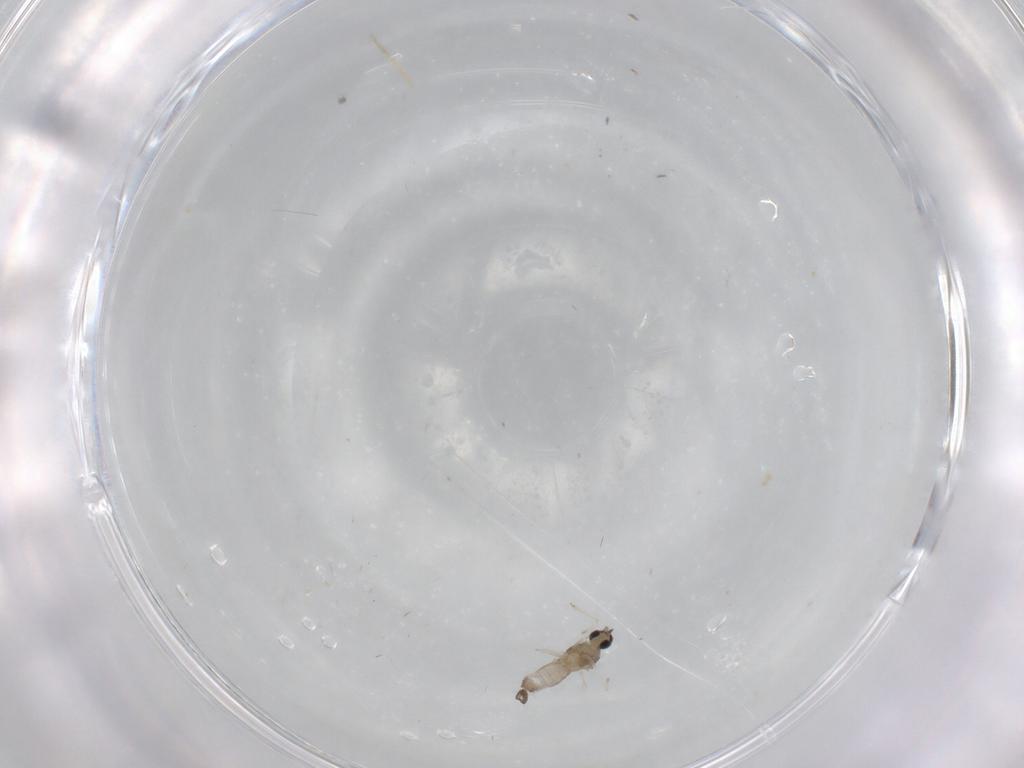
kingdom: Animalia
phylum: Arthropoda
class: Insecta
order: Diptera
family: Cecidomyiidae
